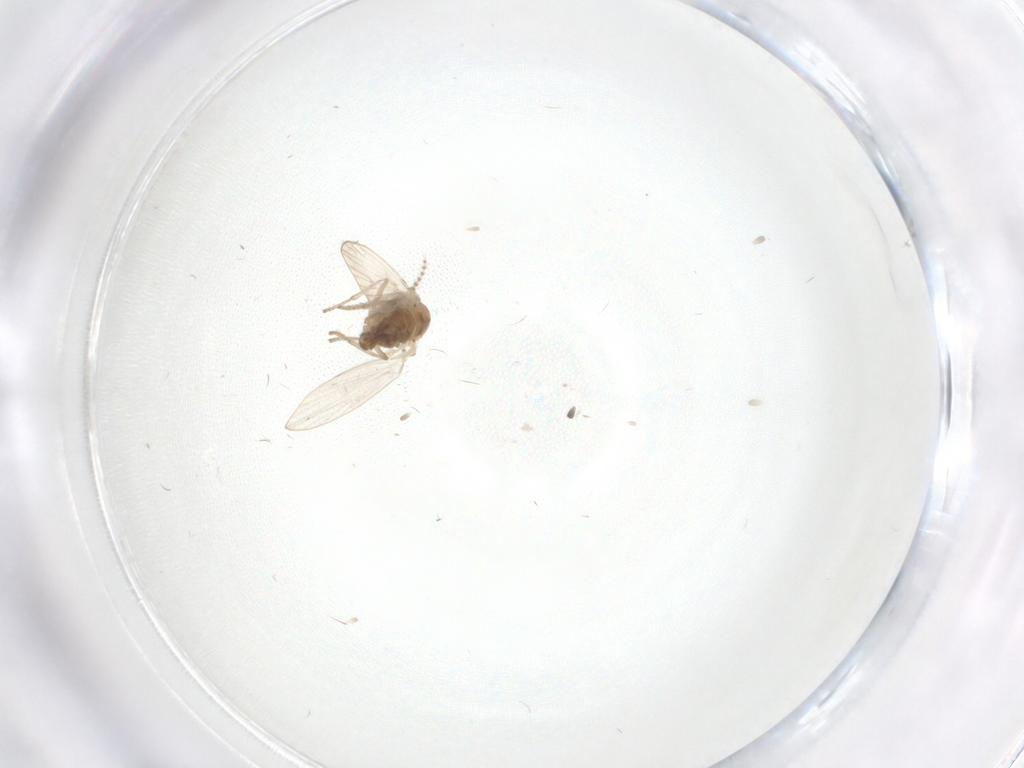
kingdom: Animalia
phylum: Arthropoda
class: Insecta
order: Diptera
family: Psychodidae
